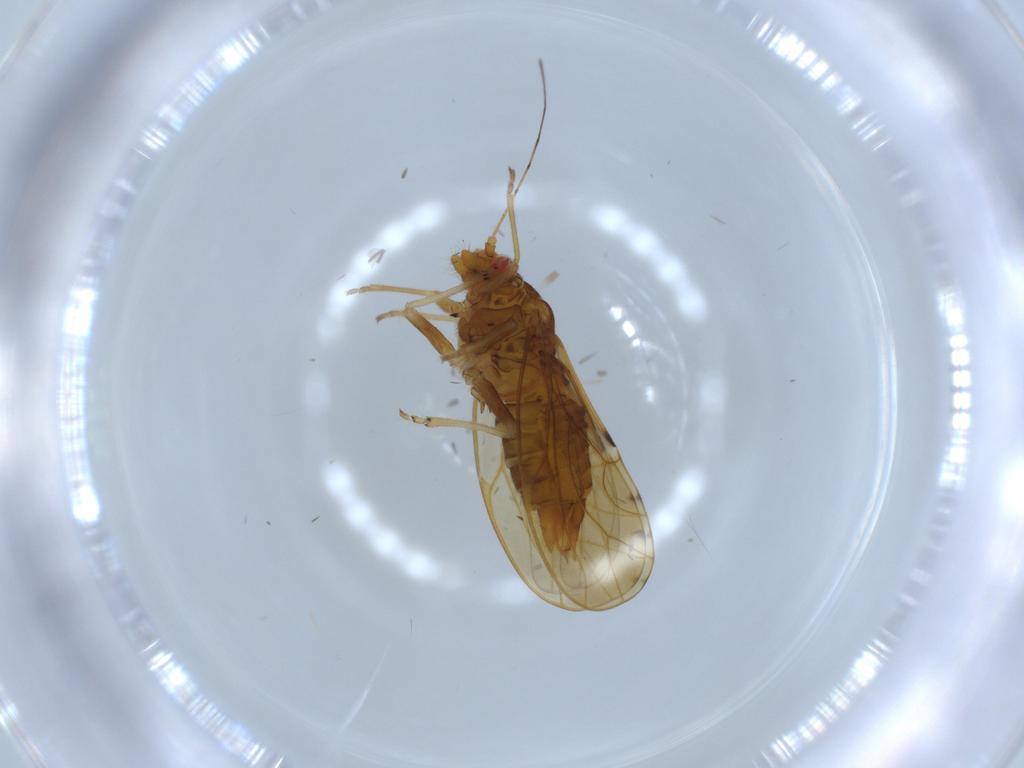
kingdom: Animalia
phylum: Arthropoda
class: Insecta
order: Hemiptera
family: Psylloidea_incertae_sedis
